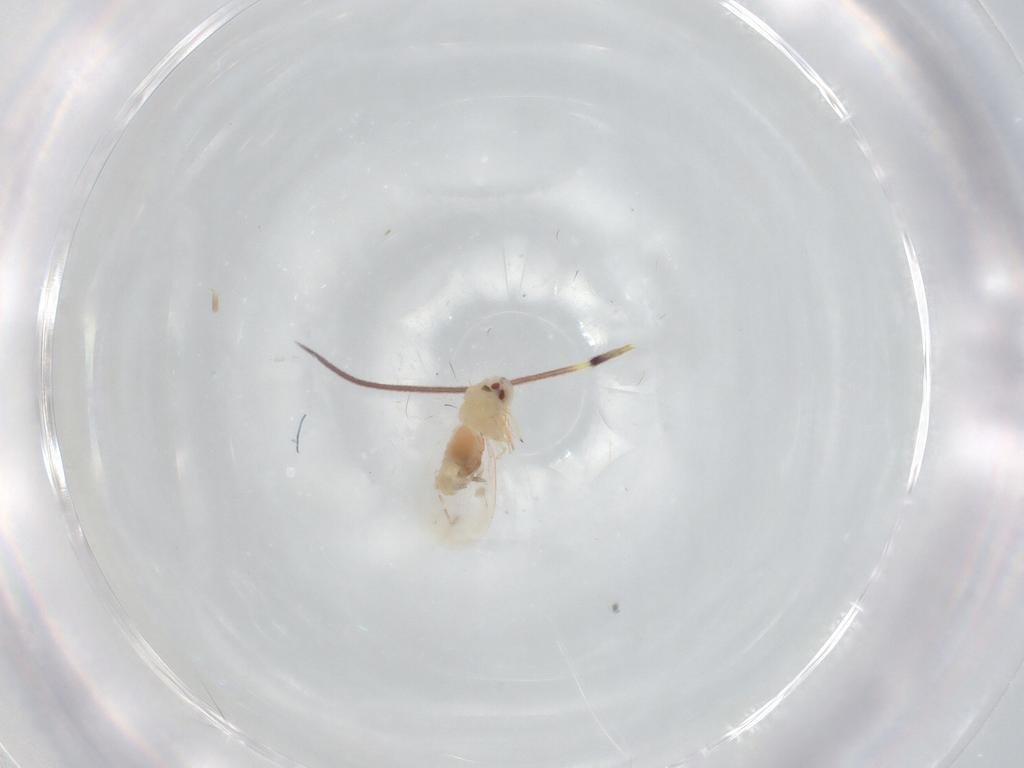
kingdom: Animalia
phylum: Arthropoda
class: Insecta
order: Hemiptera
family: Aleyrodidae
